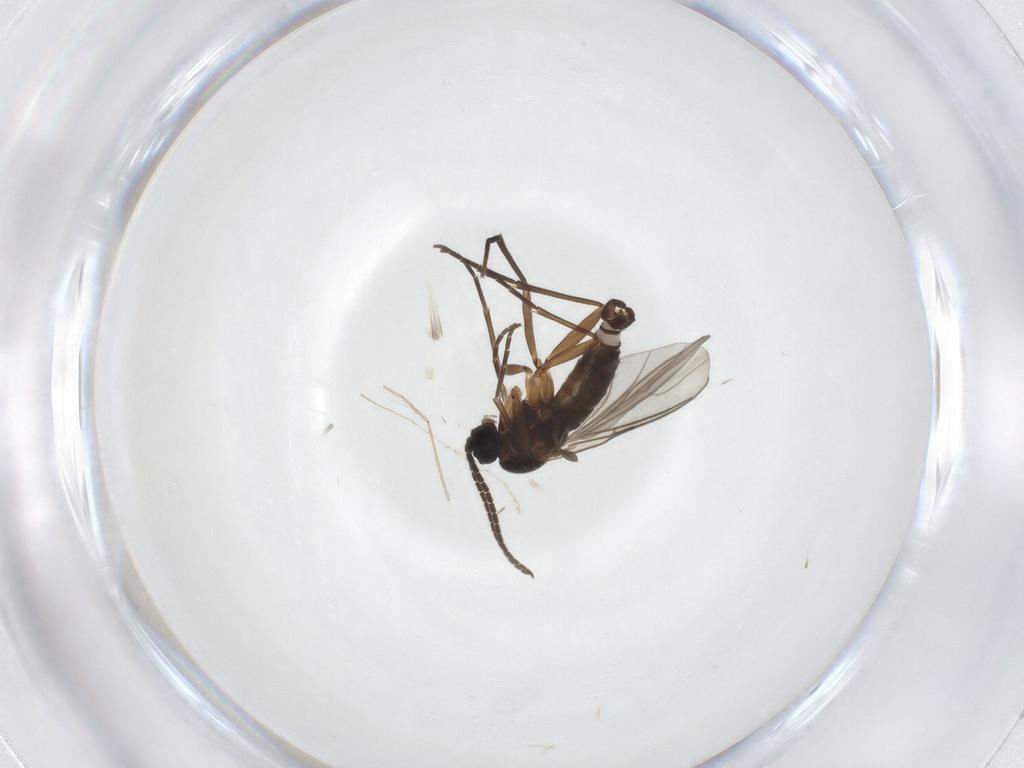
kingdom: Animalia
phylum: Arthropoda
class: Insecta
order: Diptera
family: Sciaridae
